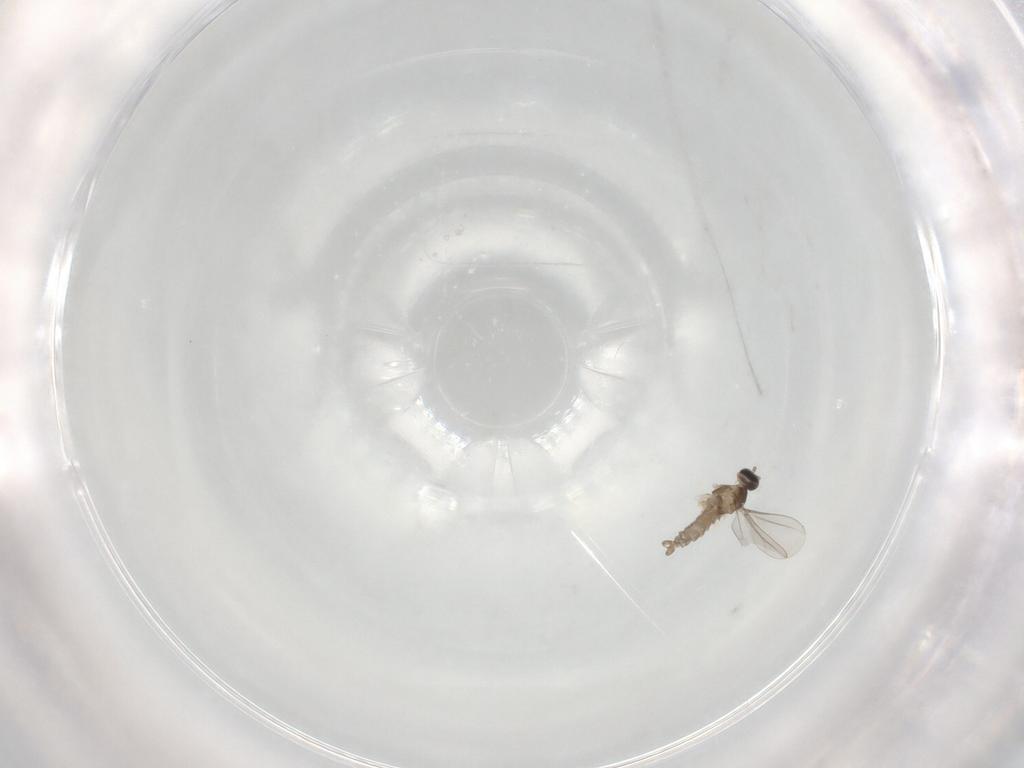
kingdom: Animalia
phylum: Arthropoda
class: Insecta
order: Diptera
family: Cecidomyiidae
